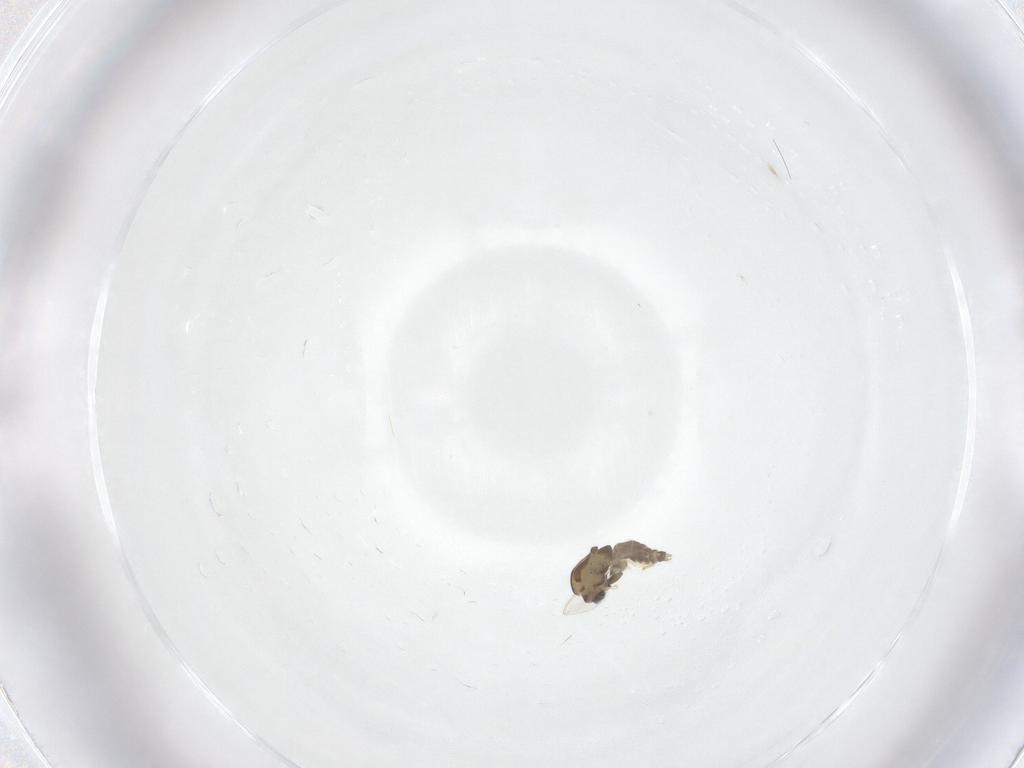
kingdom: Animalia
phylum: Arthropoda
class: Insecta
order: Diptera
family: Chironomidae
